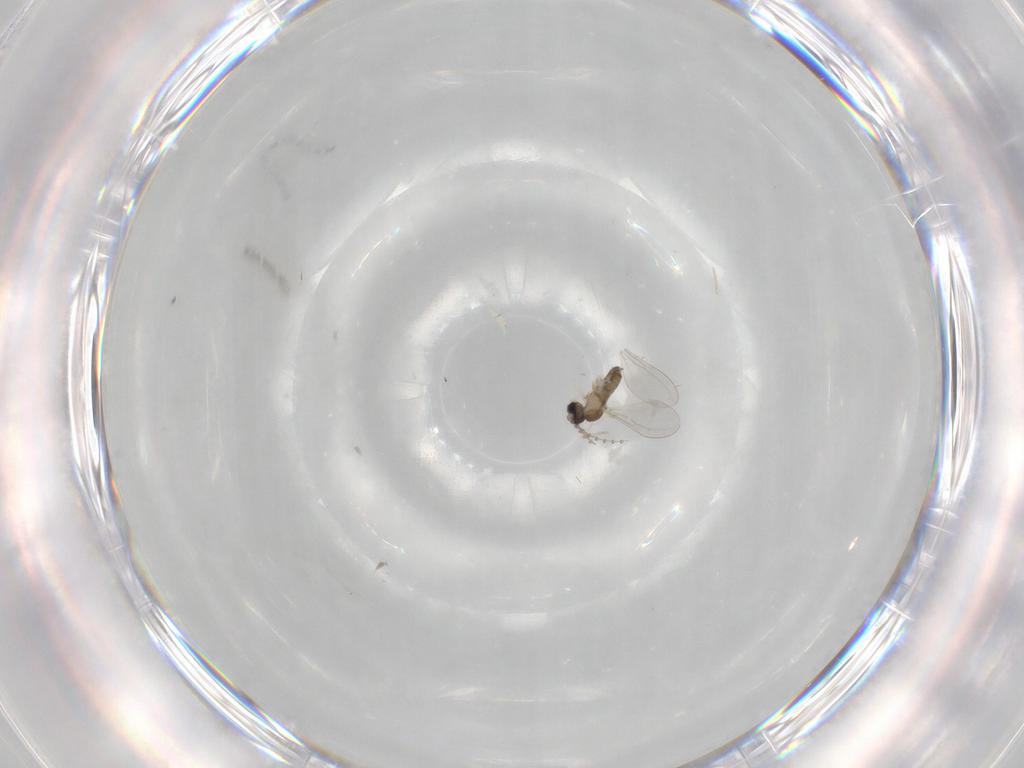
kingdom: Animalia
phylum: Arthropoda
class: Insecta
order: Diptera
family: Cecidomyiidae
